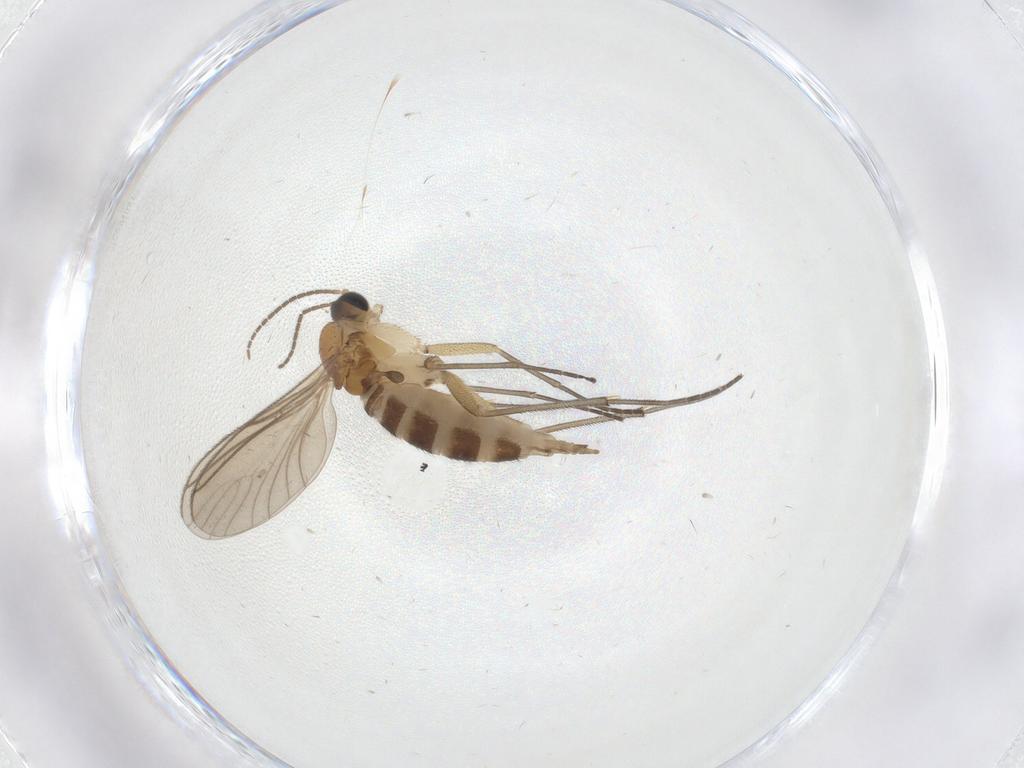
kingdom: Animalia
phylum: Arthropoda
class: Insecta
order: Diptera
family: Sciaridae
